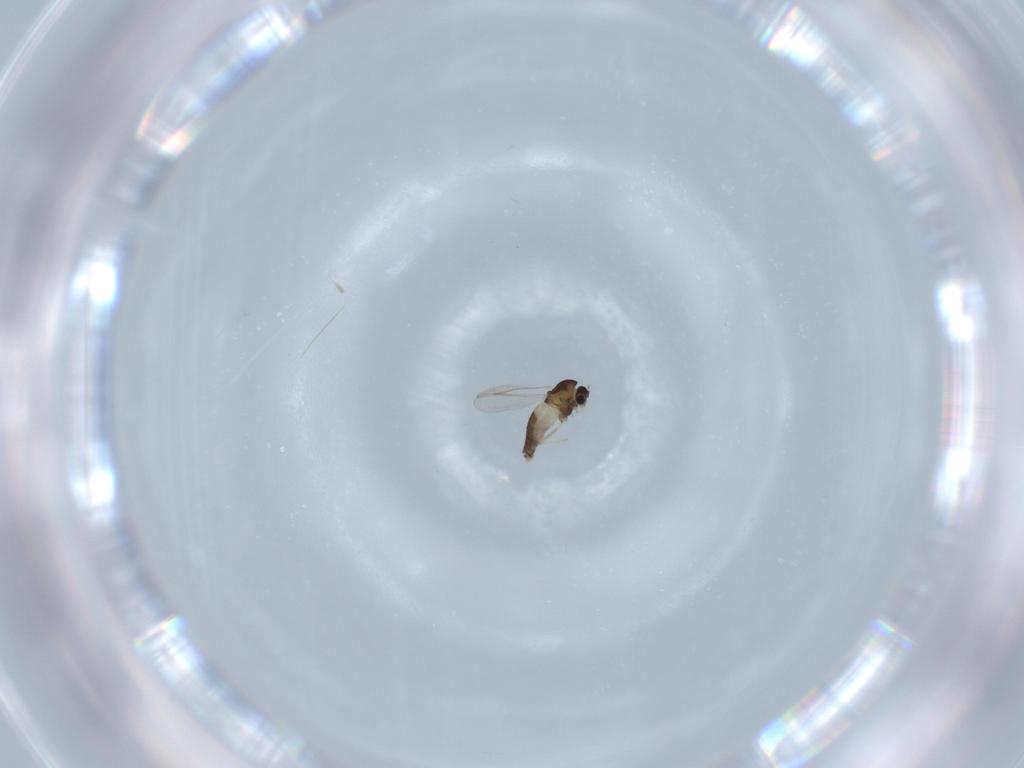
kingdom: Animalia
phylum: Arthropoda
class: Insecta
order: Diptera
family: Chironomidae
